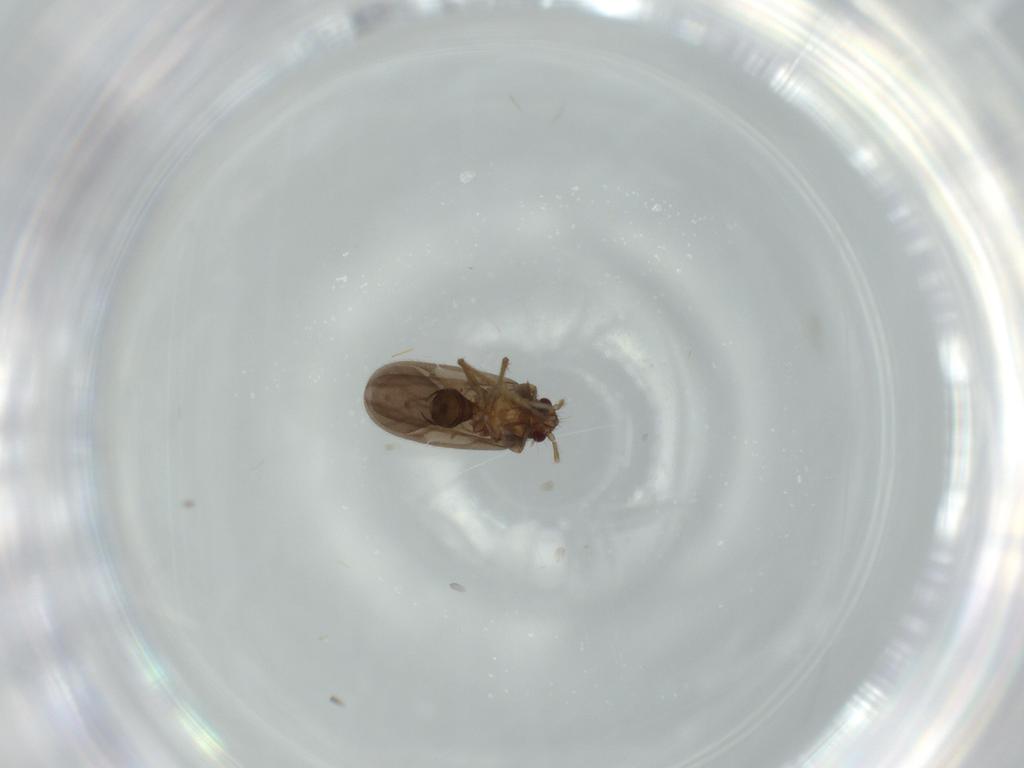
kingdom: Animalia
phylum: Arthropoda
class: Insecta
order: Hemiptera
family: Ceratocombidae
